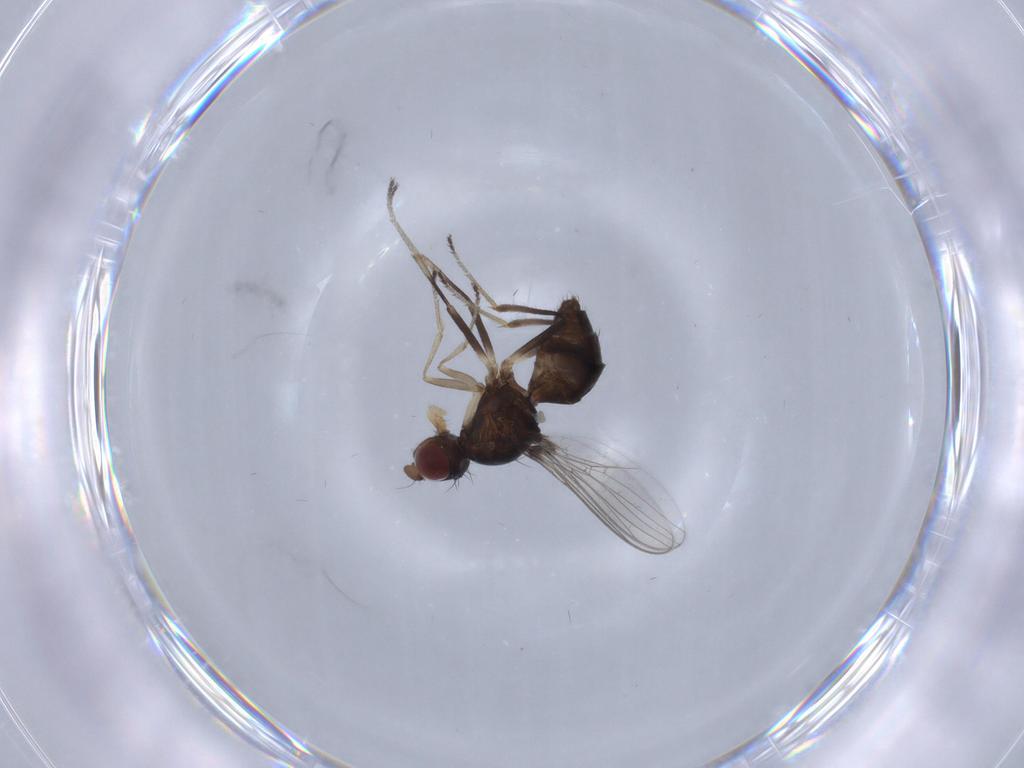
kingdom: Animalia
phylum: Arthropoda
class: Insecta
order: Diptera
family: Sepsidae
